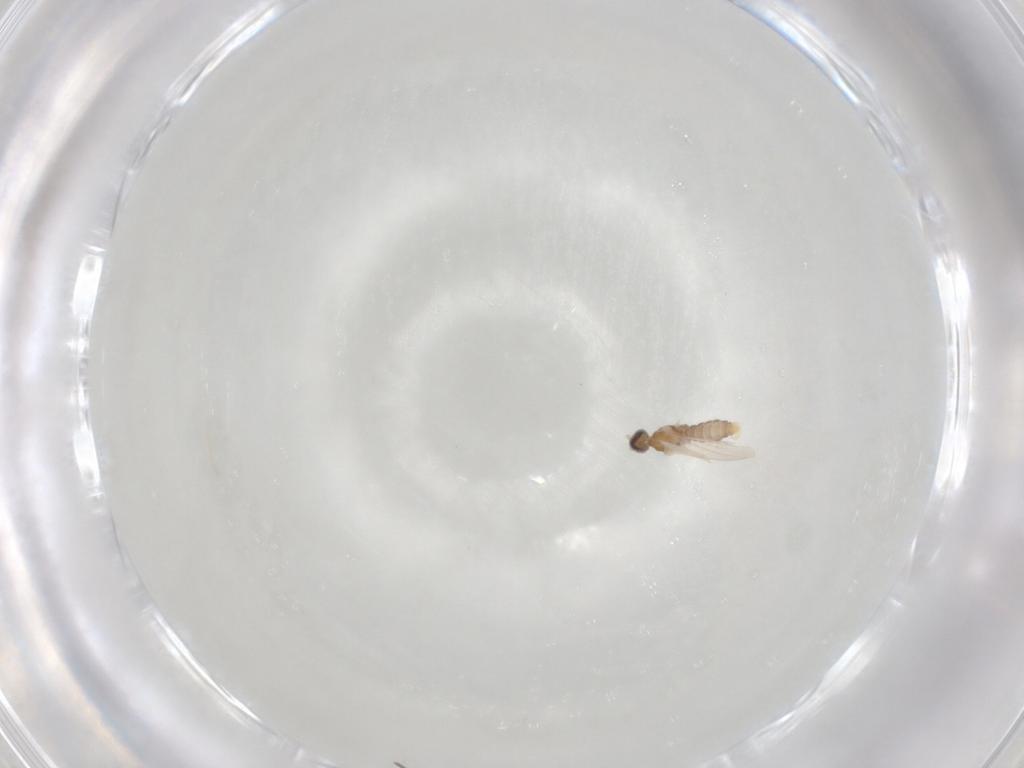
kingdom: Animalia
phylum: Arthropoda
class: Insecta
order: Diptera
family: Cecidomyiidae
